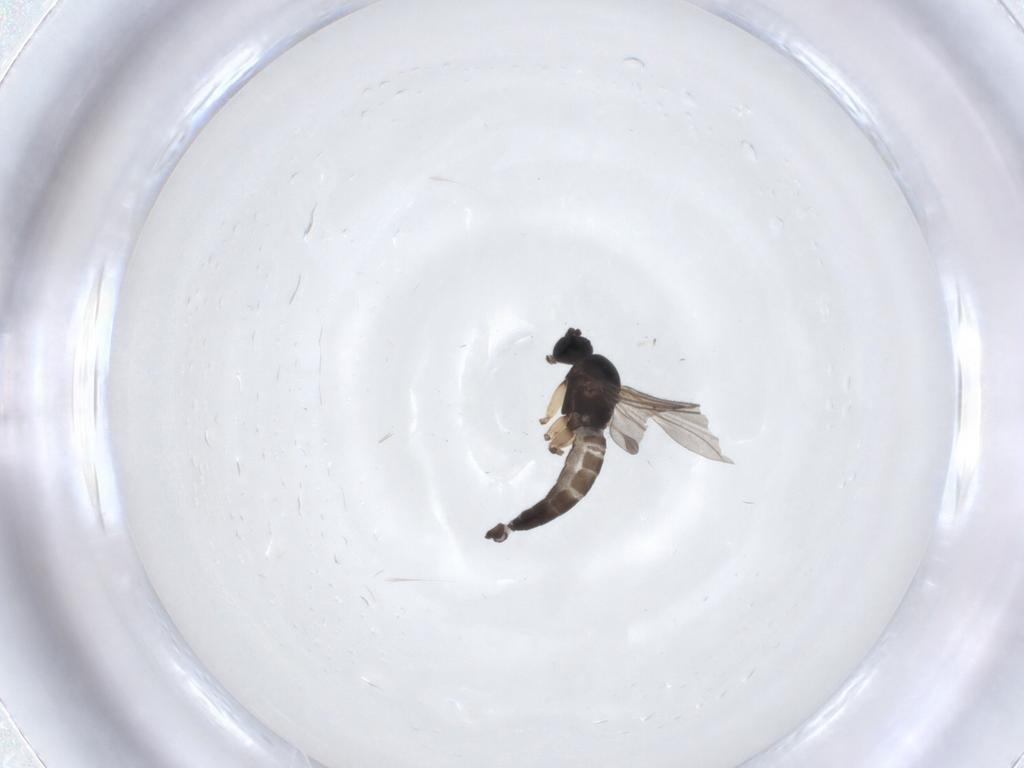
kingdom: Animalia
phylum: Arthropoda
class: Insecta
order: Diptera
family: Sciaridae
